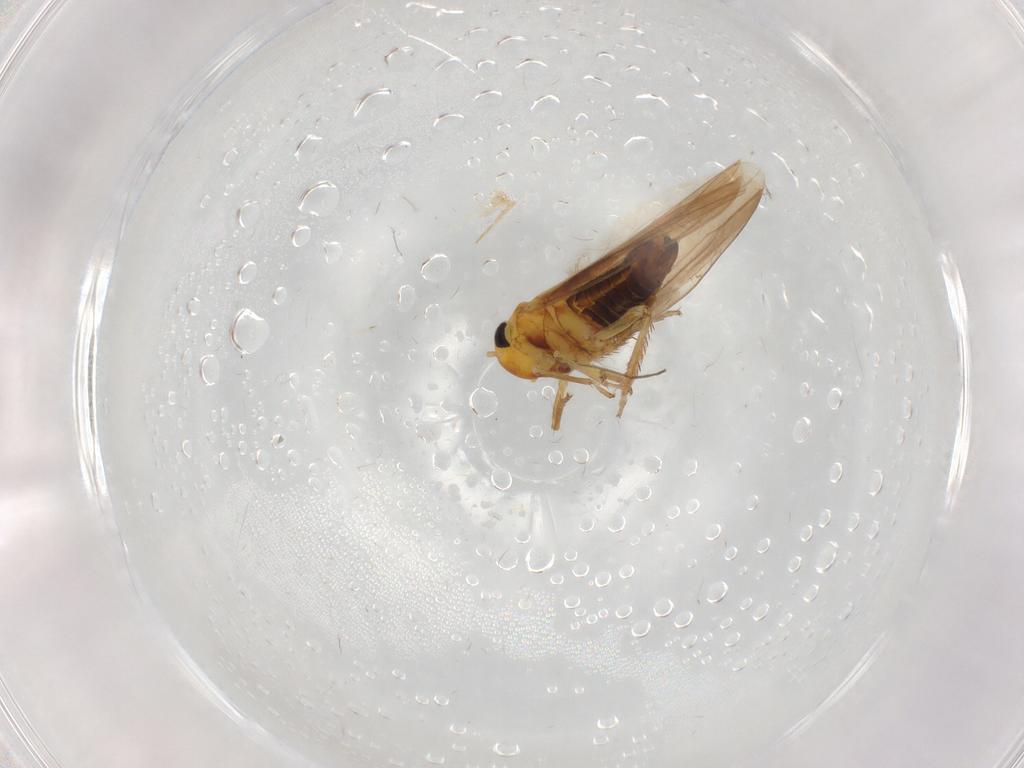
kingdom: Animalia
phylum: Arthropoda
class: Insecta
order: Hemiptera
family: Cicadellidae
